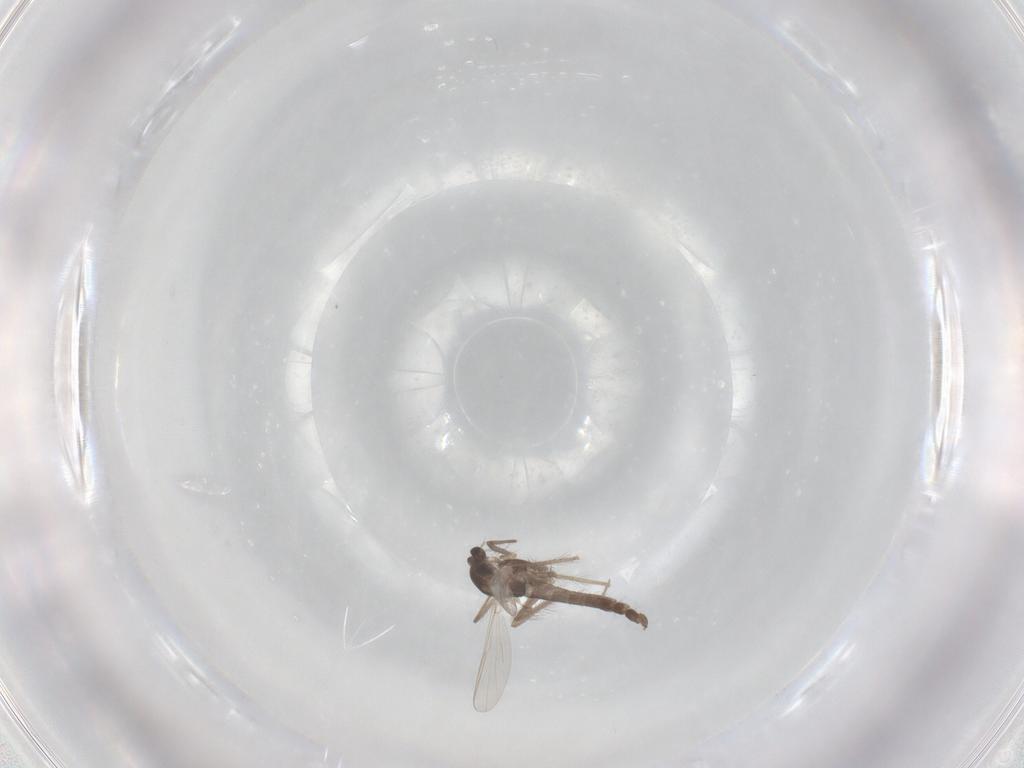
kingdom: Animalia
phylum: Arthropoda
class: Insecta
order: Diptera
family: Chironomidae
